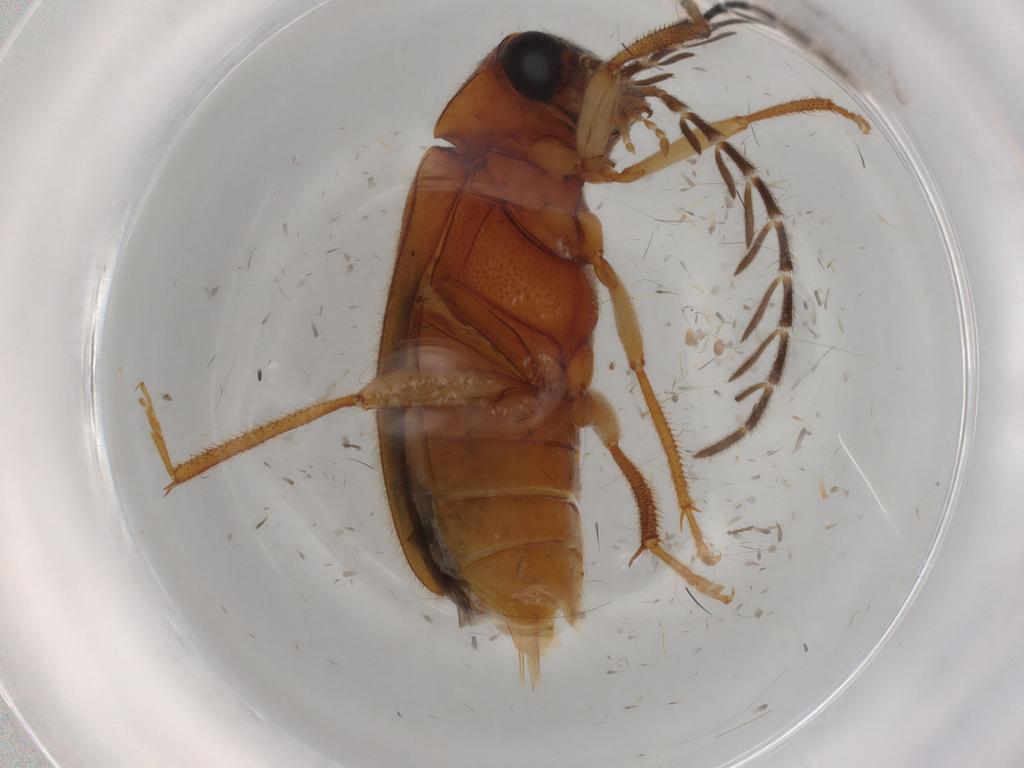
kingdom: Animalia
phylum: Arthropoda
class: Insecta
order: Coleoptera
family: Ptilodactylidae
